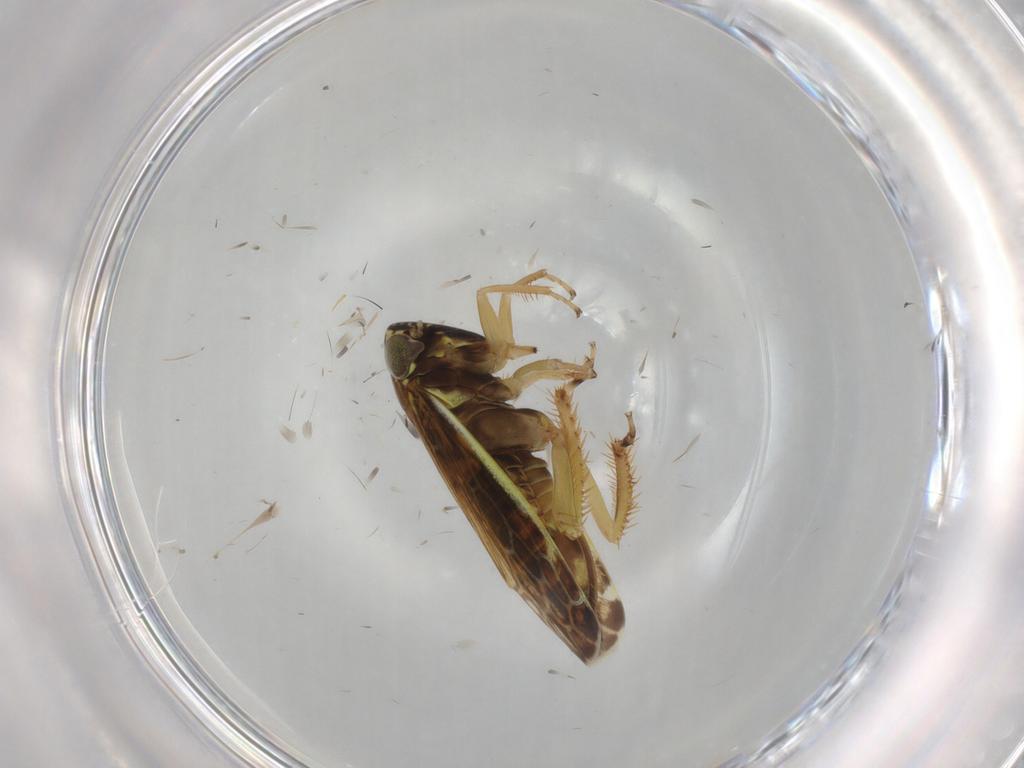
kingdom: Animalia
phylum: Arthropoda
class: Insecta
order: Hemiptera
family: Cicadellidae
